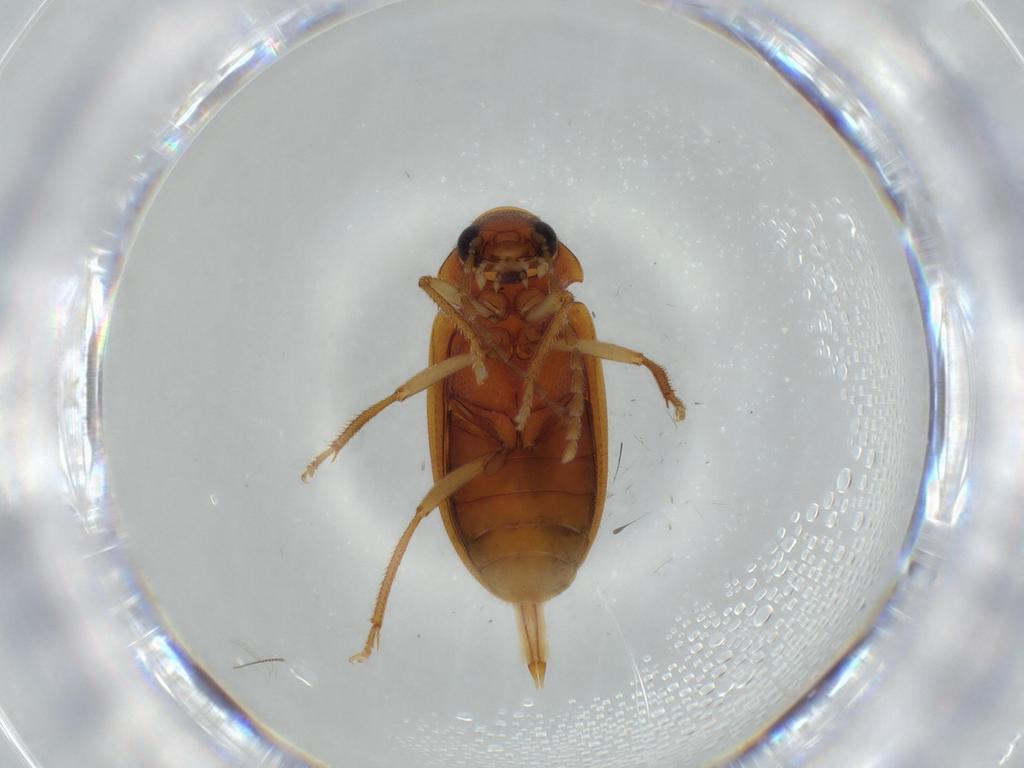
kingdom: Animalia
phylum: Arthropoda
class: Insecta
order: Coleoptera
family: Ptilodactylidae
